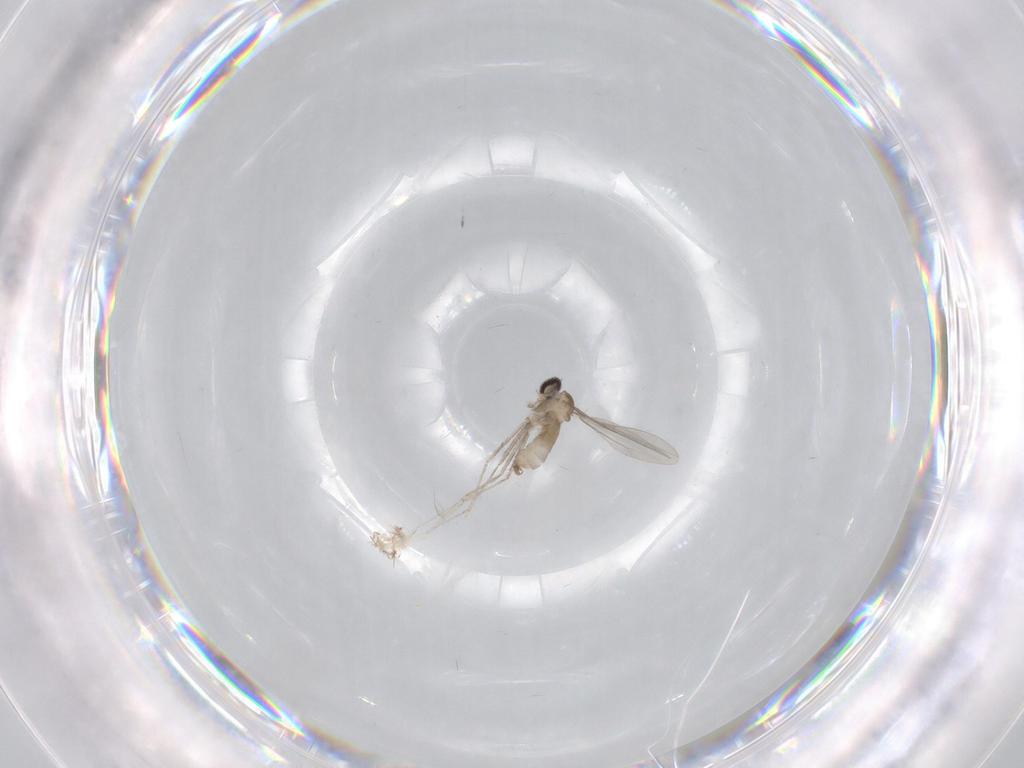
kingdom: Animalia
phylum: Arthropoda
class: Insecta
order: Diptera
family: Cecidomyiidae
